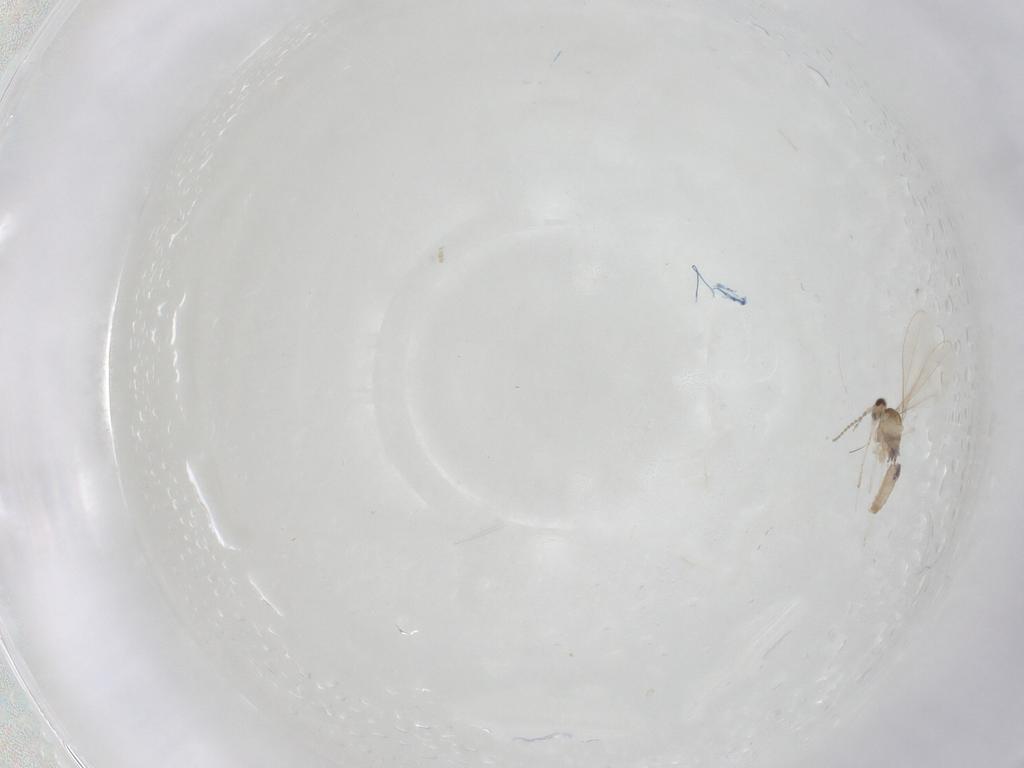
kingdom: Animalia
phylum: Arthropoda
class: Insecta
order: Diptera
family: Cecidomyiidae
